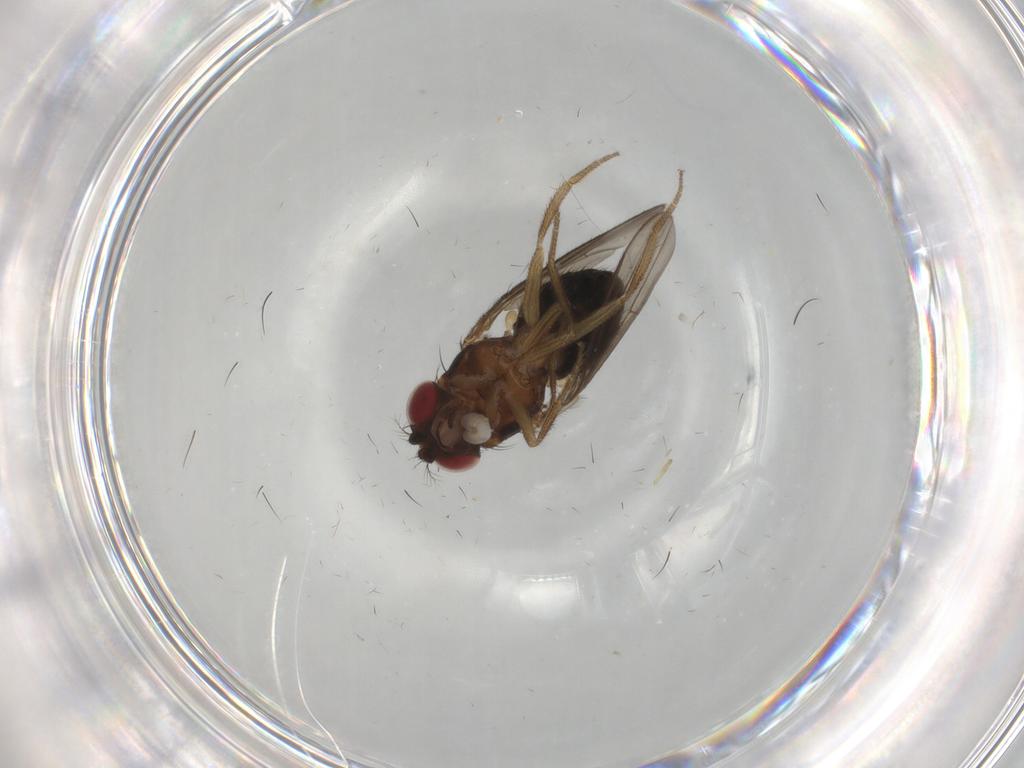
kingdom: Animalia
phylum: Arthropoda
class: Insecta
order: Diptera
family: Drosophilidae
